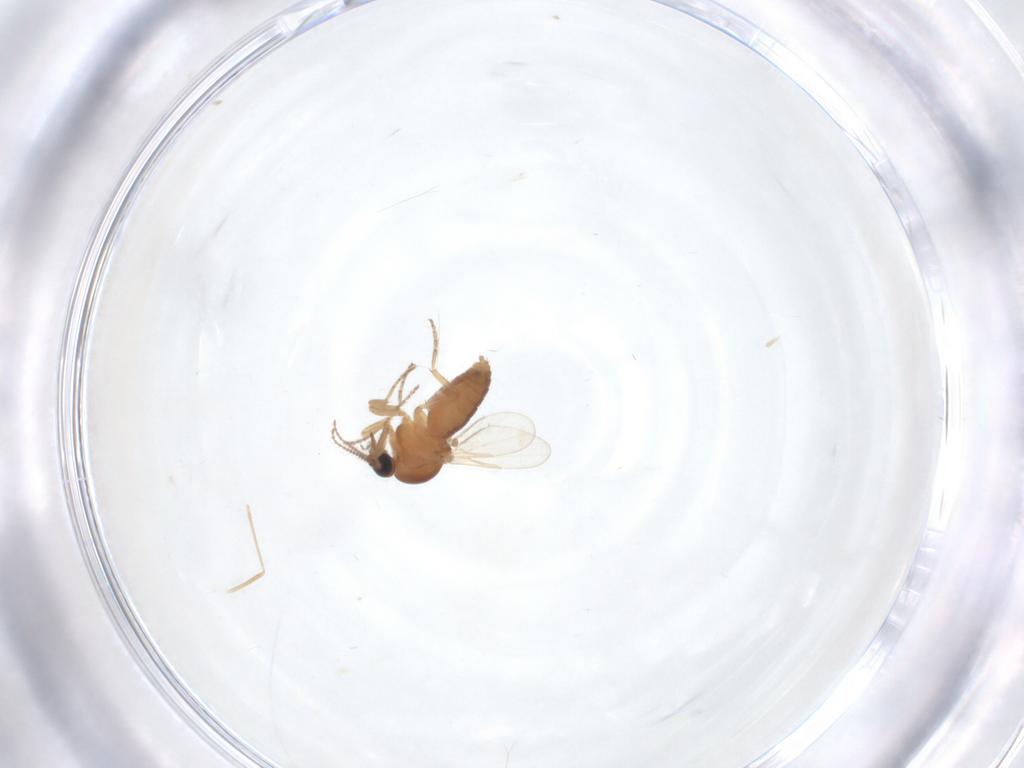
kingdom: Animalia
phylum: Arthropoda
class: Insecta
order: Diptera
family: Ceratopogonidae
